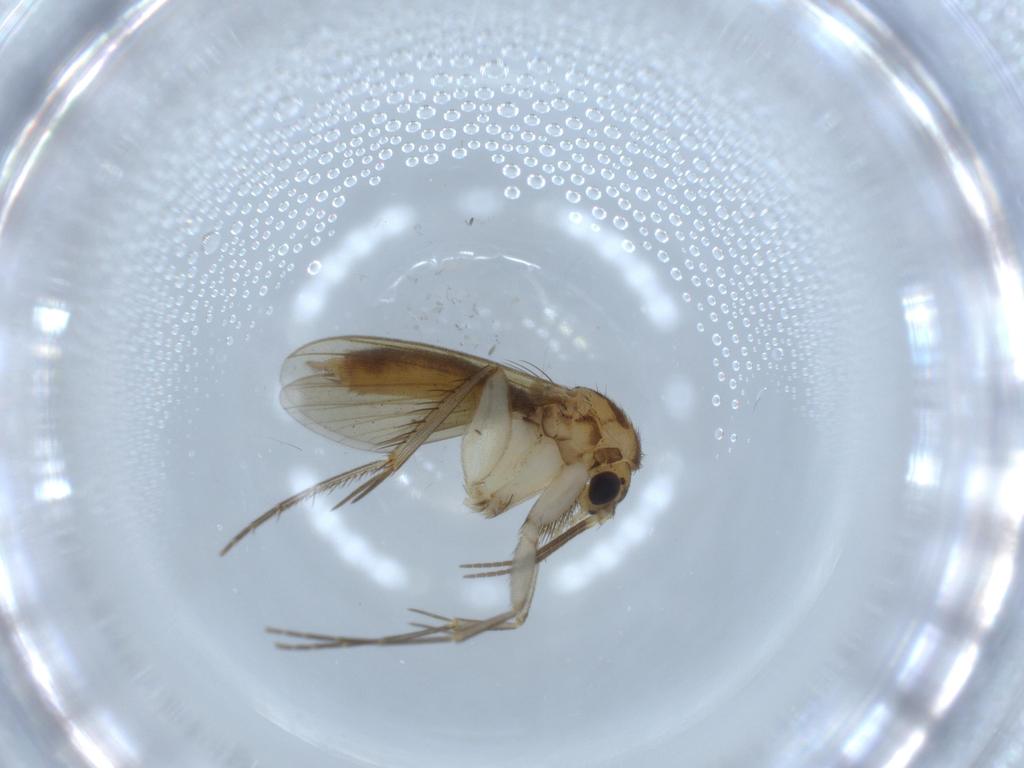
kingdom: Animalia
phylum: Arthropoda
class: Insecta
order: Diptera
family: Mycetophilidae
